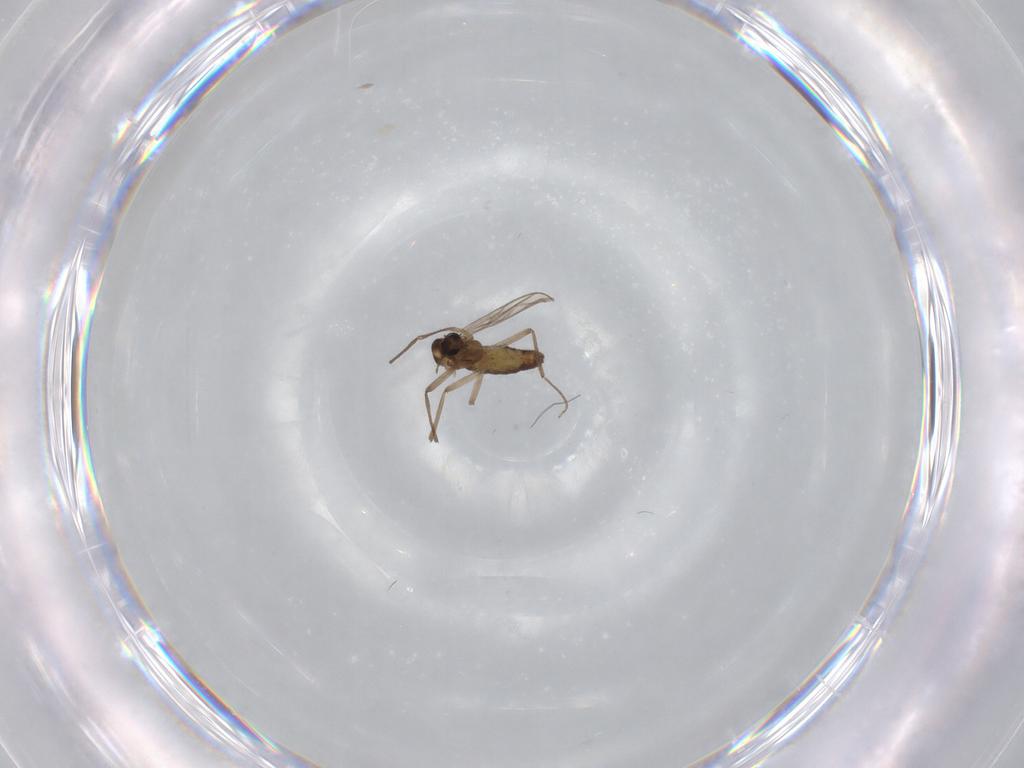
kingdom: Animalia
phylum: Arthropoda
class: Insecta
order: Diptera
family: Chironomidae
